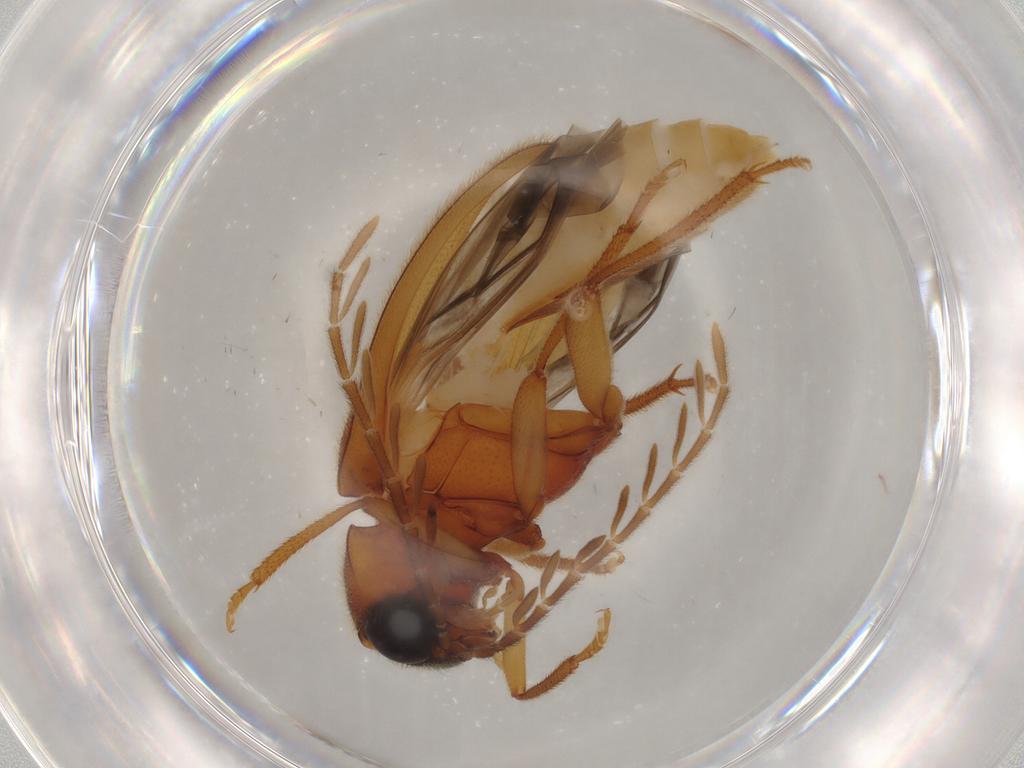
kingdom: Animalia
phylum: Arthropoda
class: Insecta
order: Coleoptera
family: Ptilodactylidae
